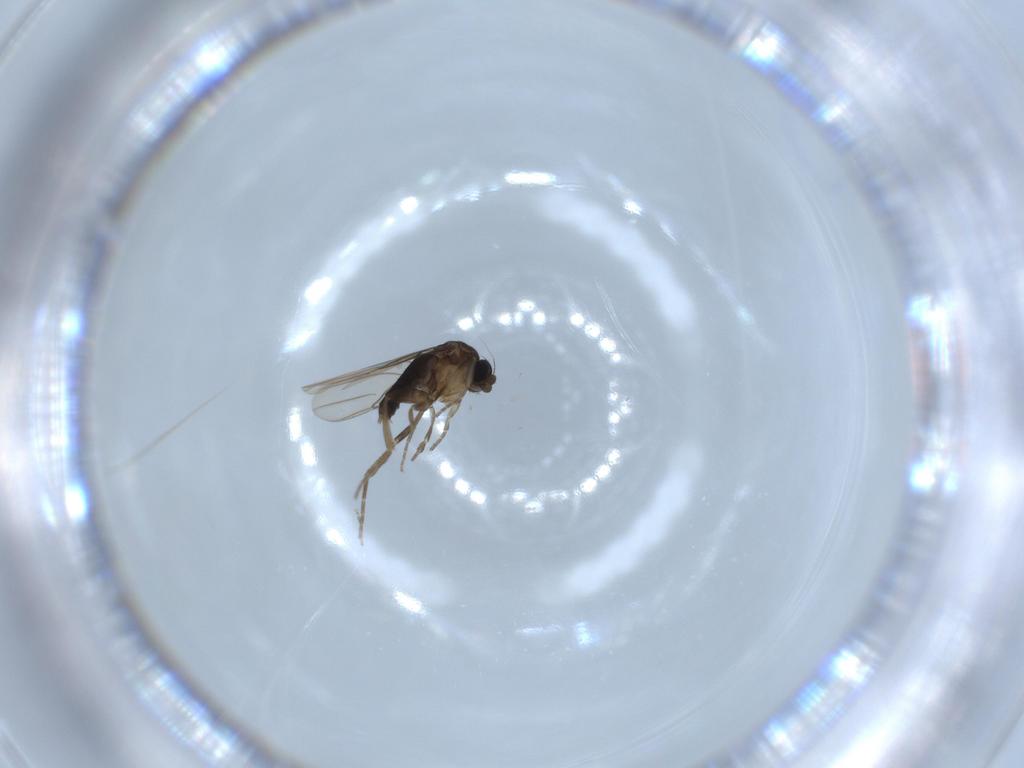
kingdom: Animalia
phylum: Arthropoda
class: Insecta
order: Diptera
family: Phoridae
